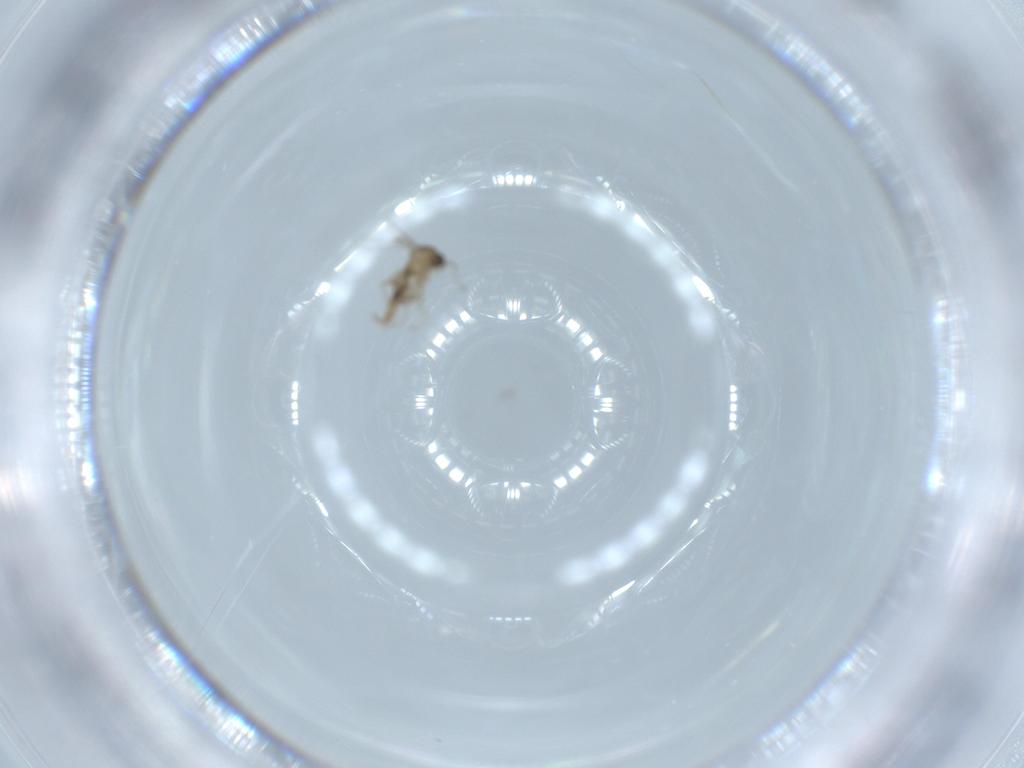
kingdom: Animalia
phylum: Arthropoda
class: Insecta
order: Diptera
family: Cecidomyiidae
